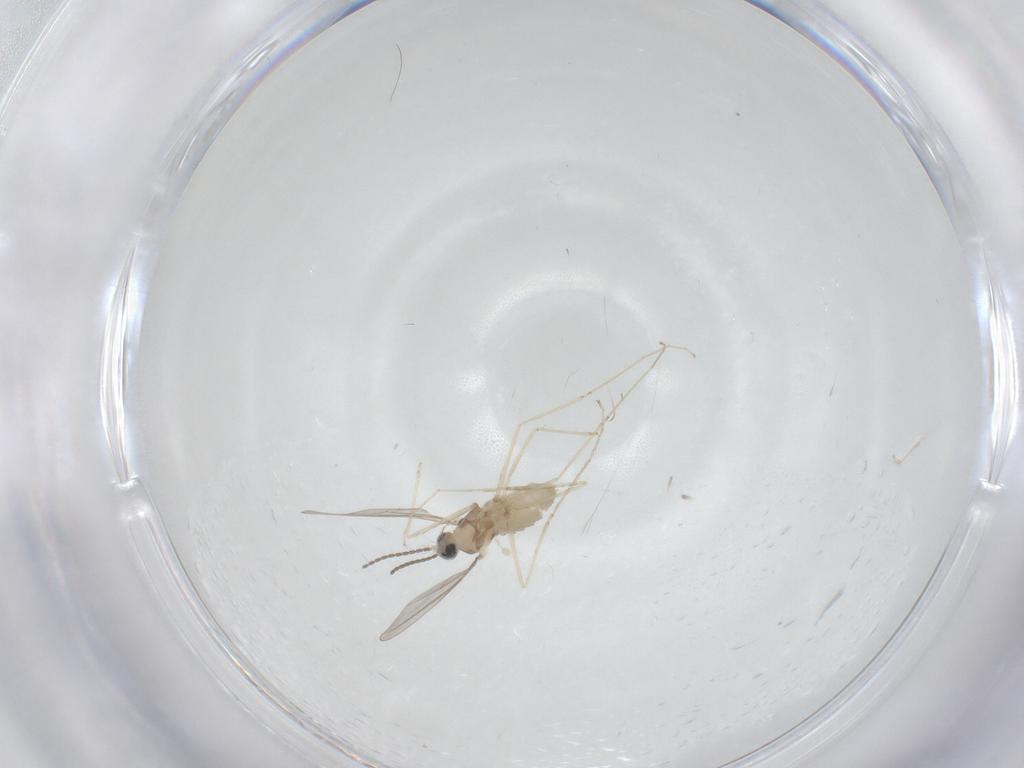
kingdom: Animalia
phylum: Arthropoda
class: Insecta
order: Diptera
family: Cecidomyiidae
